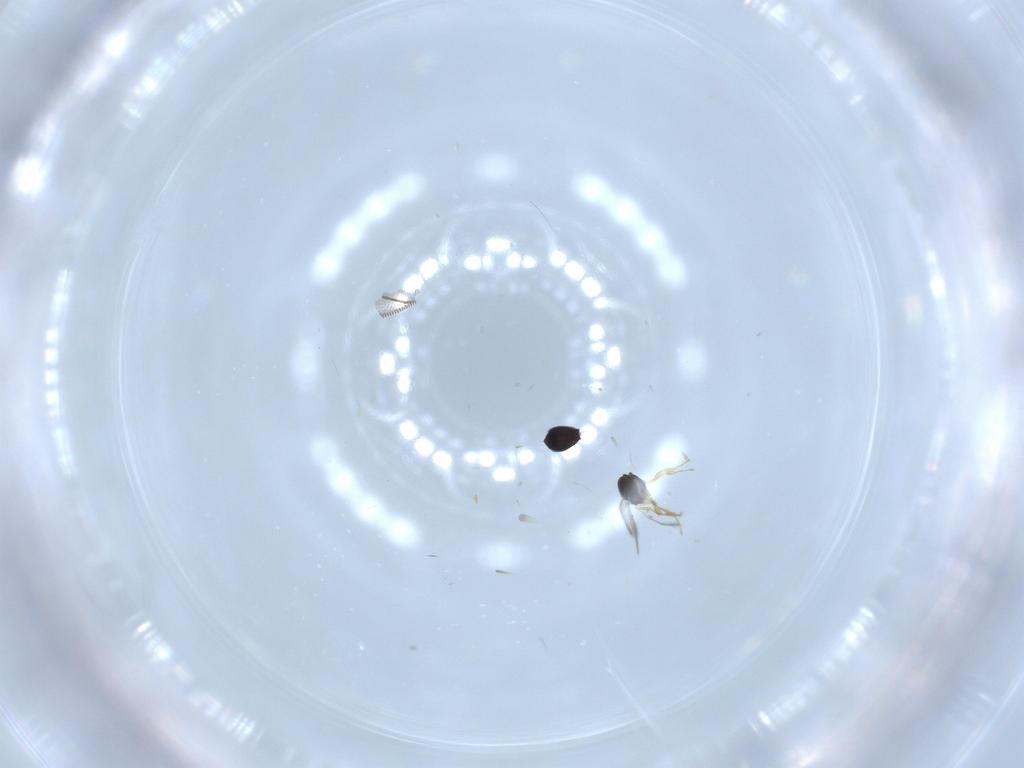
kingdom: Animalia
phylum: Arthropoda
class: Insecta
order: Hymenoptera
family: Scelionidae
